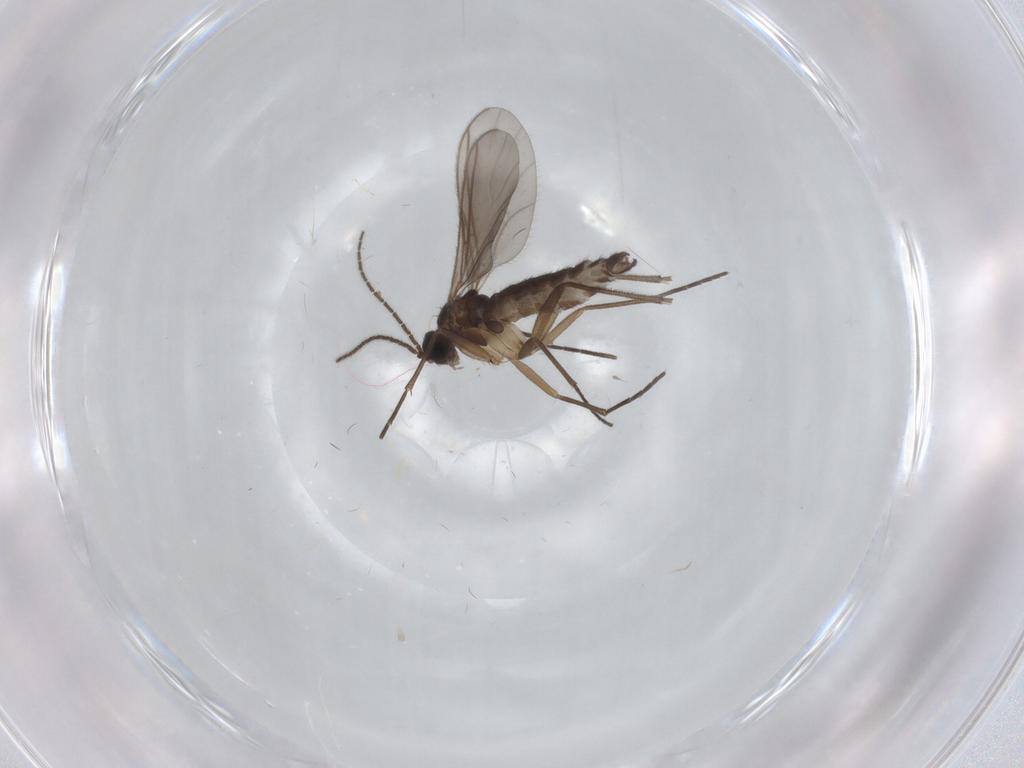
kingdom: Animalia
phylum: Arthropoda
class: Insecta
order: Diptera
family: Sciaridae
